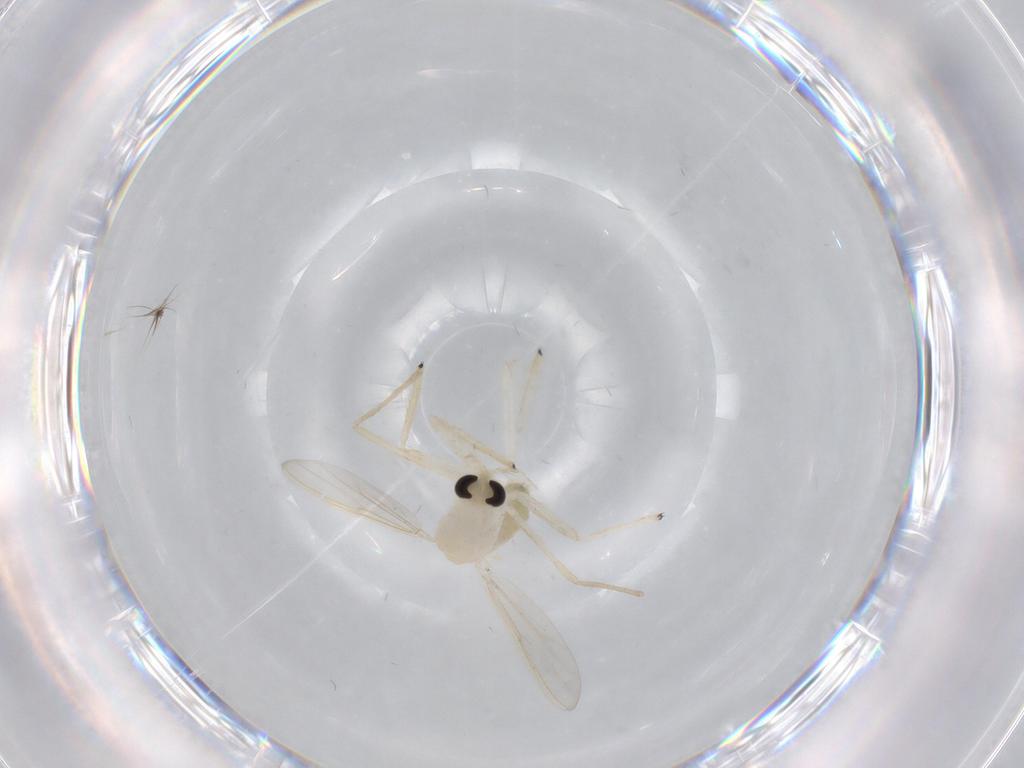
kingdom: Animalia
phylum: Arthropoda
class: Insecta
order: Diptera
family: Chironomidae
